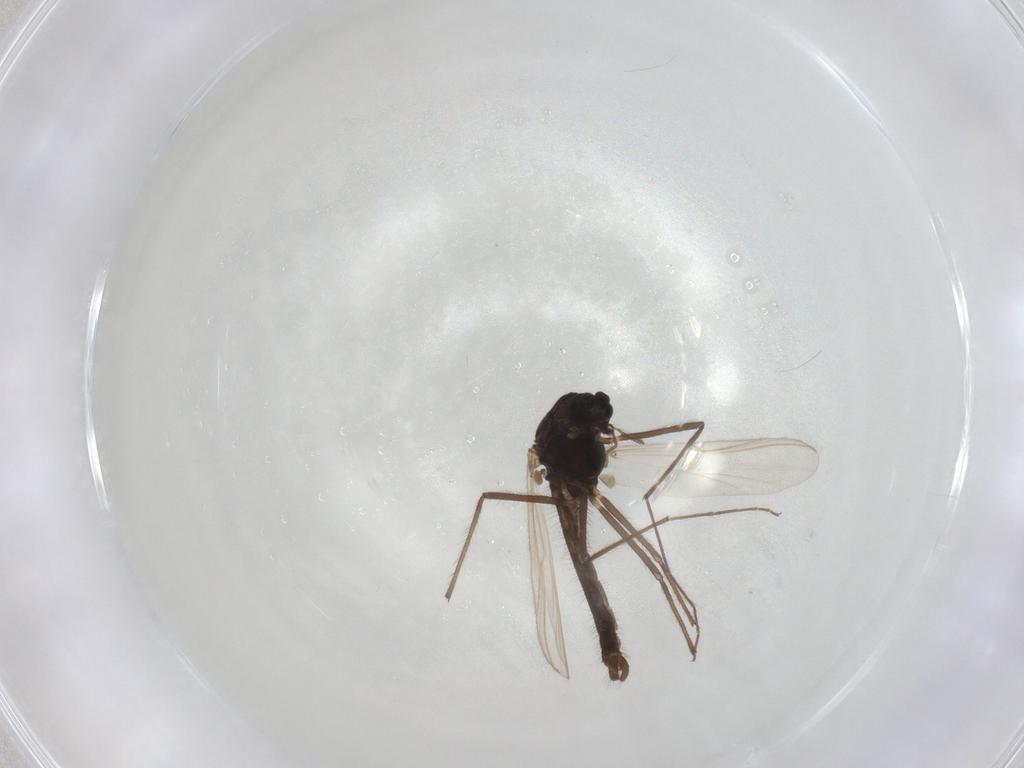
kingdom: Animalia
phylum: Arthropoda
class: Insecta
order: Diptera
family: Chironomidae
